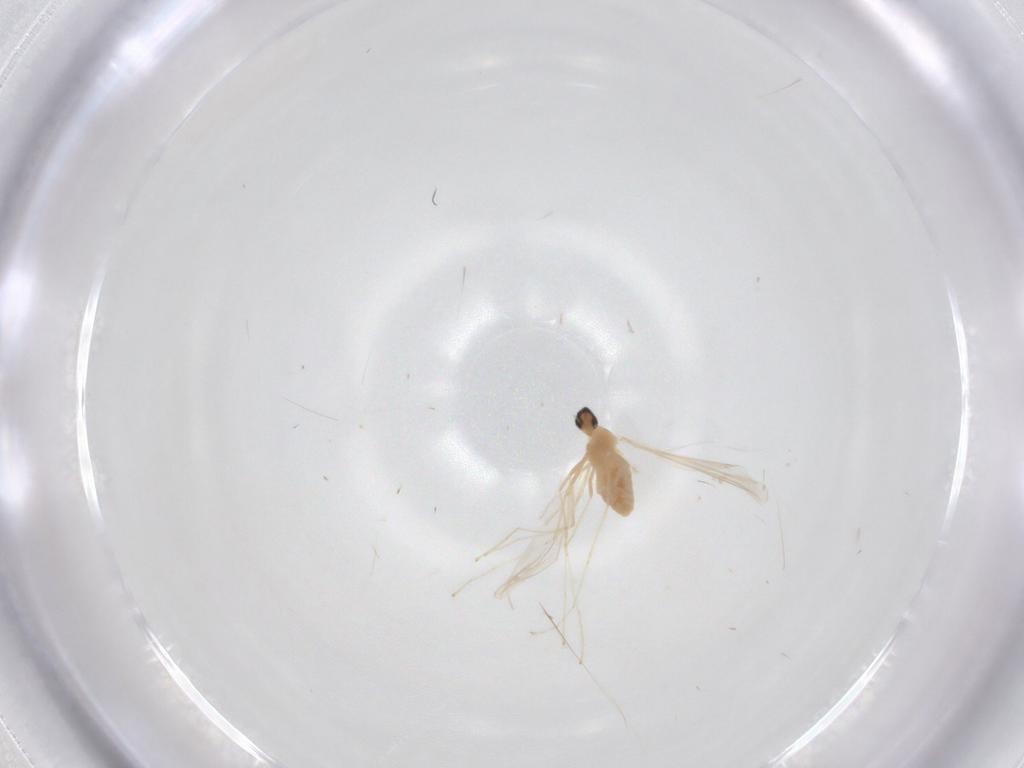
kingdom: Animalia
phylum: Arthropoda
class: Insecta
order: Diptera
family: Cecidomyiidae
